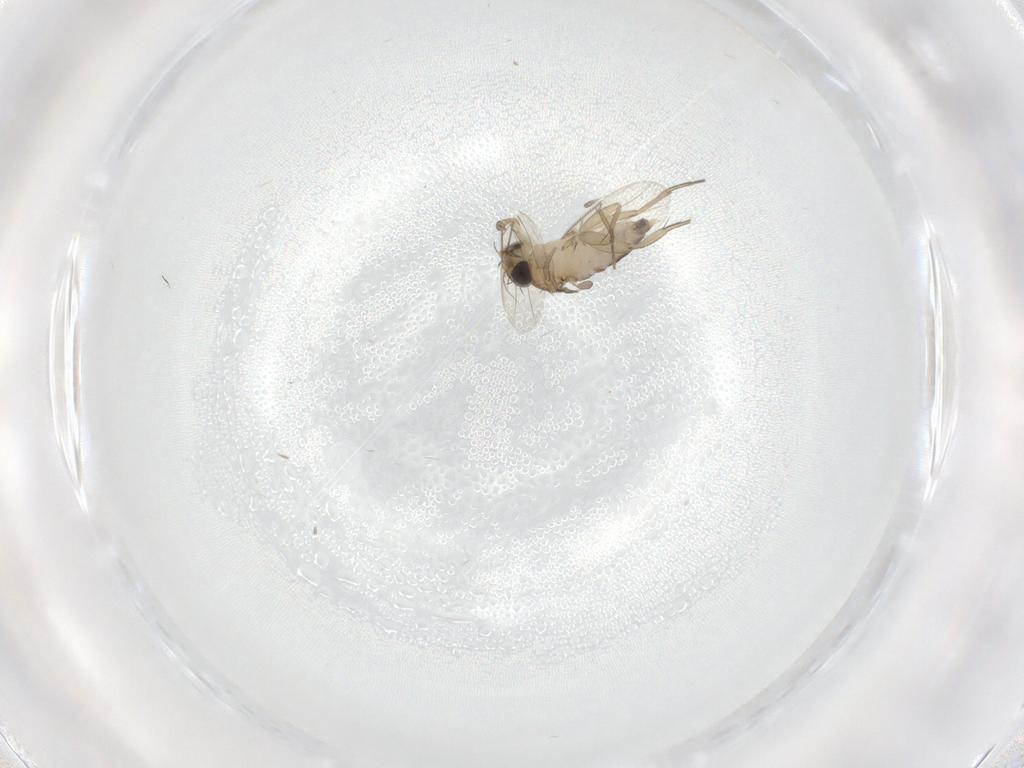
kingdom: Animalia
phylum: Arthropoda
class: Insecta
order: Diptera
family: Phoridae
